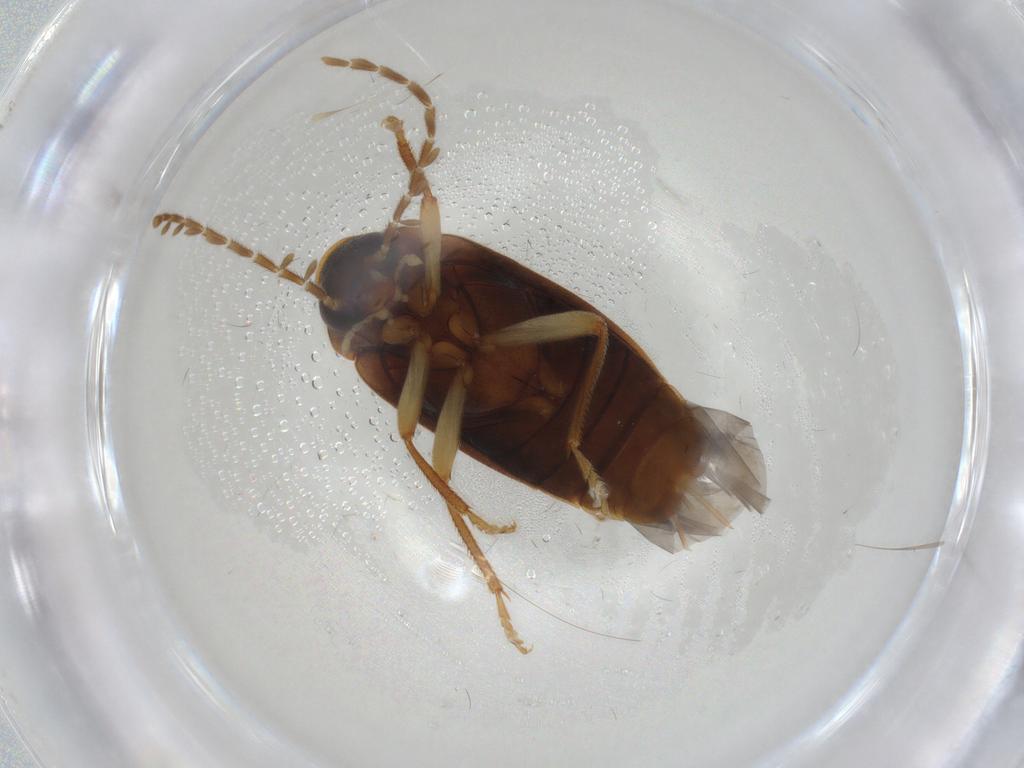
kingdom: Animalia
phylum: Arthropoda
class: Insecta
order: Coleoptera
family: Ptilodactylidae
